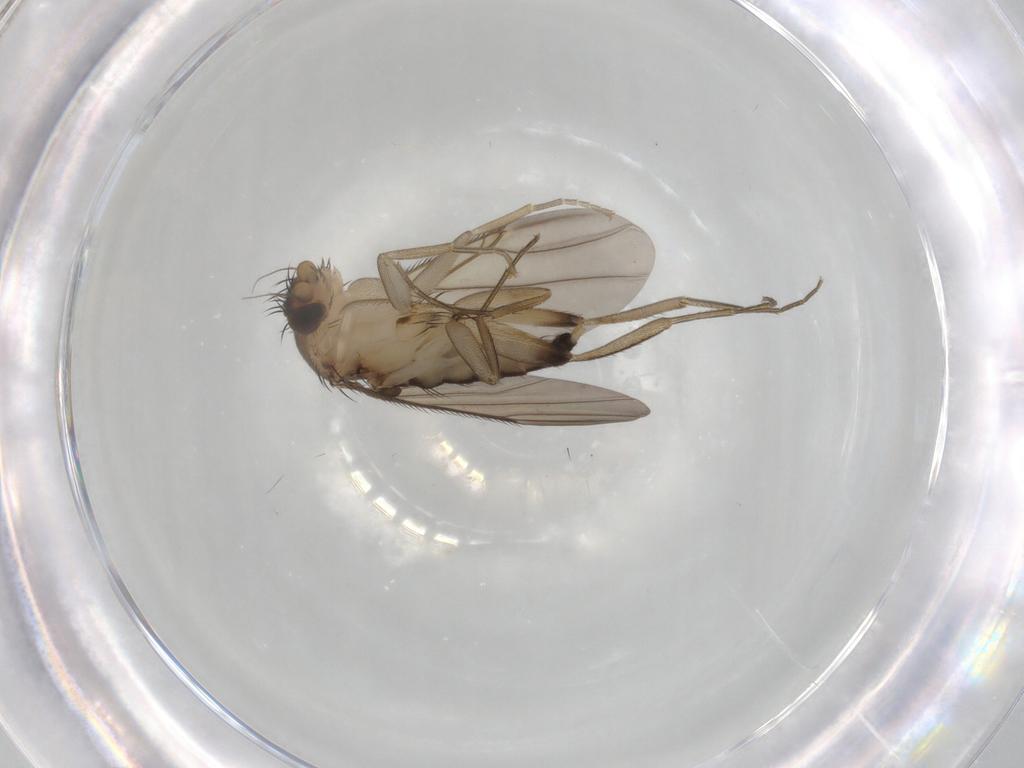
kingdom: Animalia
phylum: Arthropoda
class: Insecta
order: Diptera
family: Phoridae
